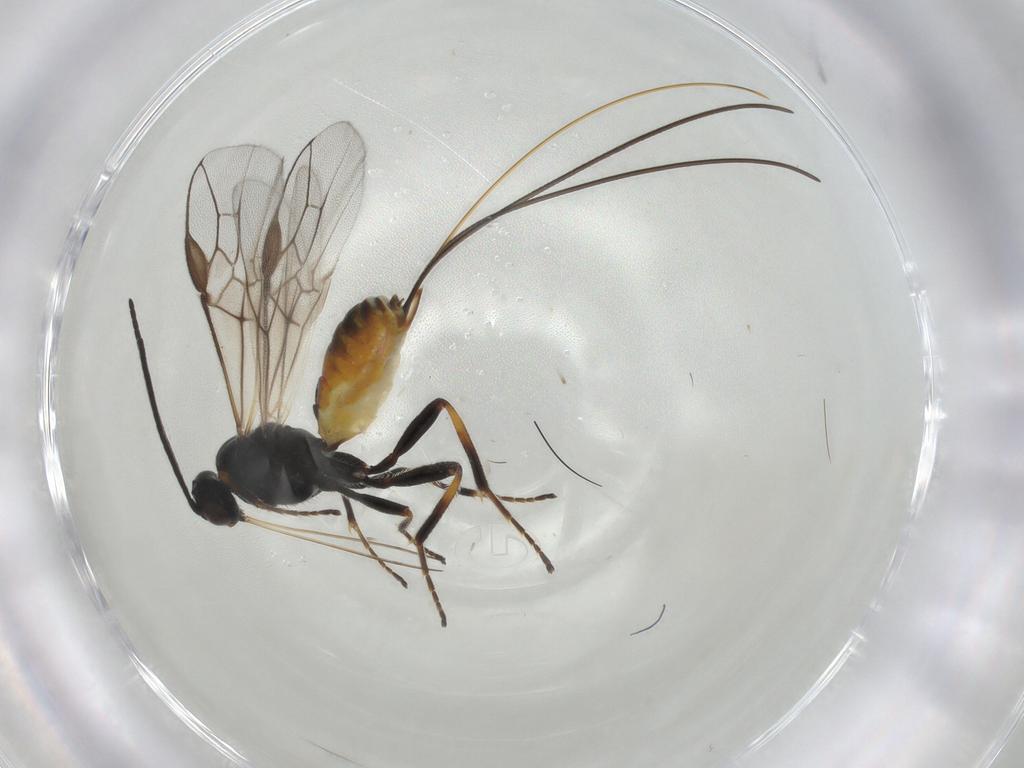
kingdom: Animalia
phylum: Arthropoda
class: Insecta
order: Hymenoptera
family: Braconidae
